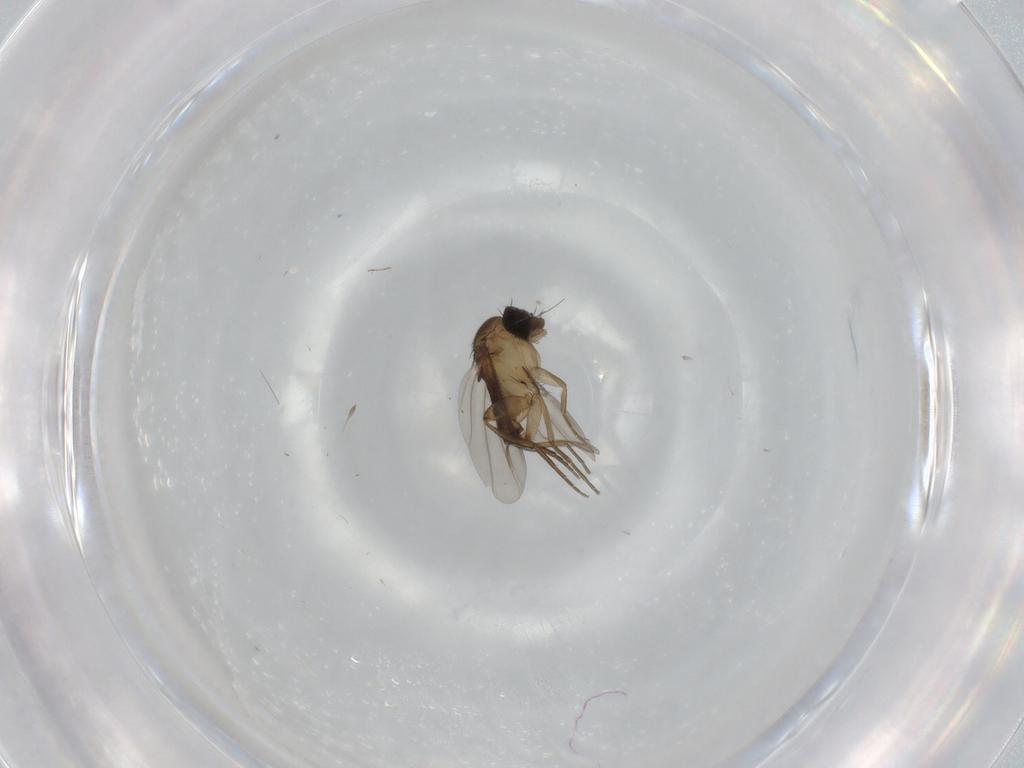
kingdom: Animalia
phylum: Arthropoda
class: Insecta
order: Diptera
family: Phoridae
